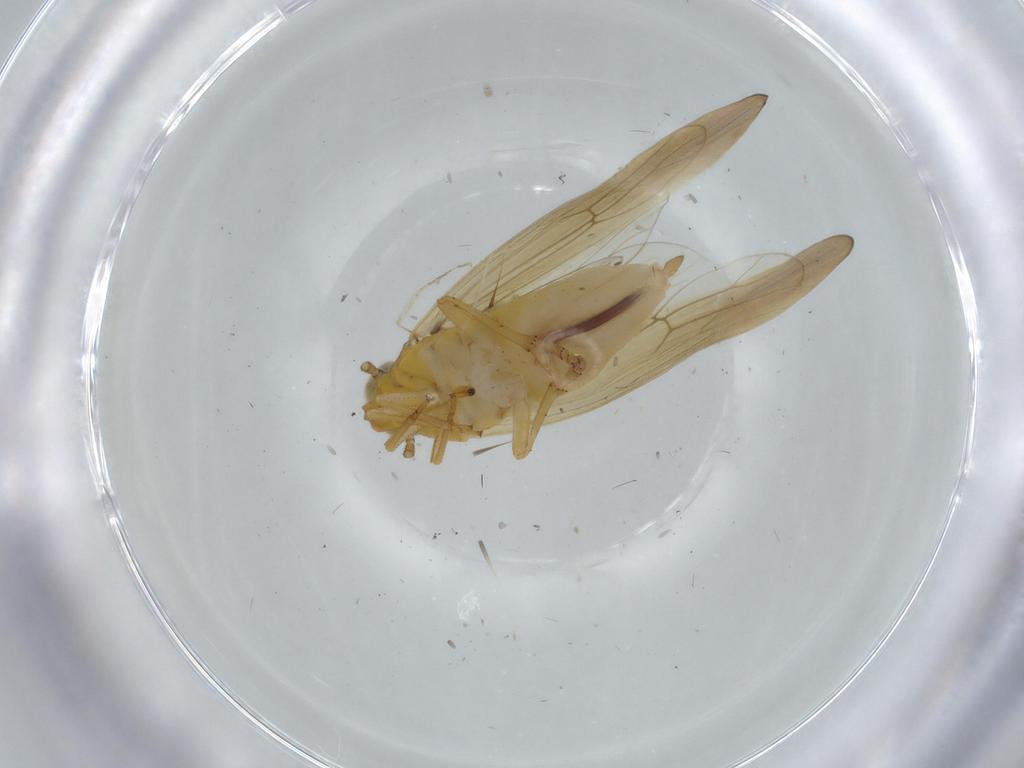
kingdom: Animalia
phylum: Arthropoda
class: Insecta
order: Hemiptera
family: Delphacidae
